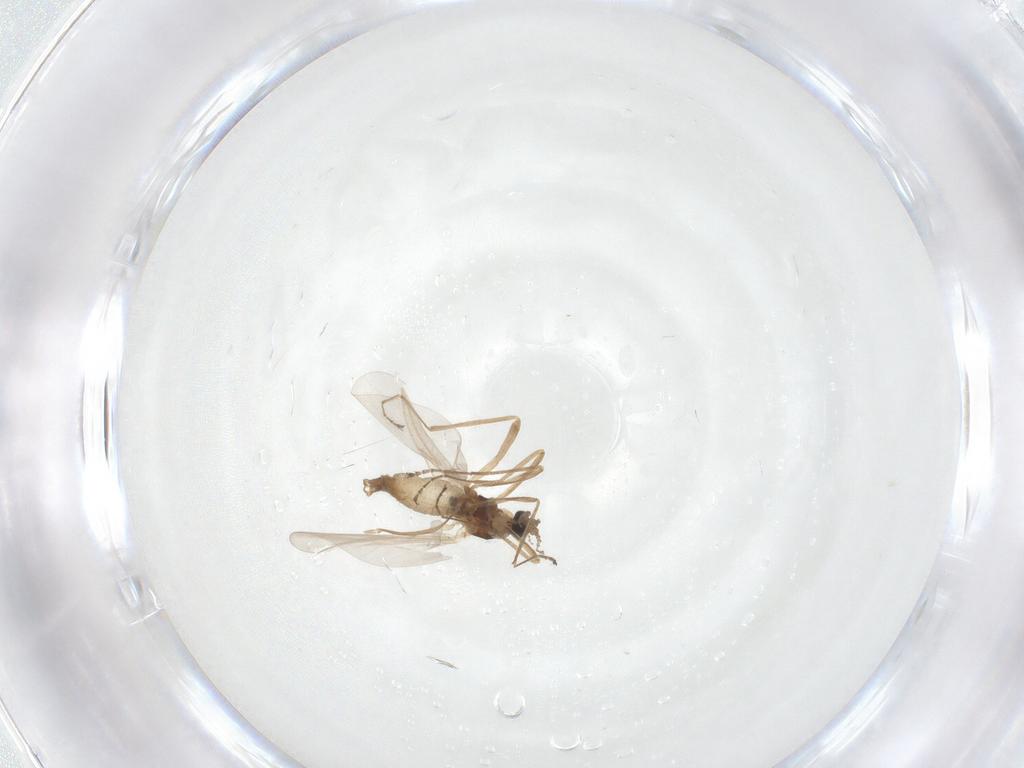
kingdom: Animalia
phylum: Arthropoda
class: Insecta
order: Diptera
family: Psychodidae
